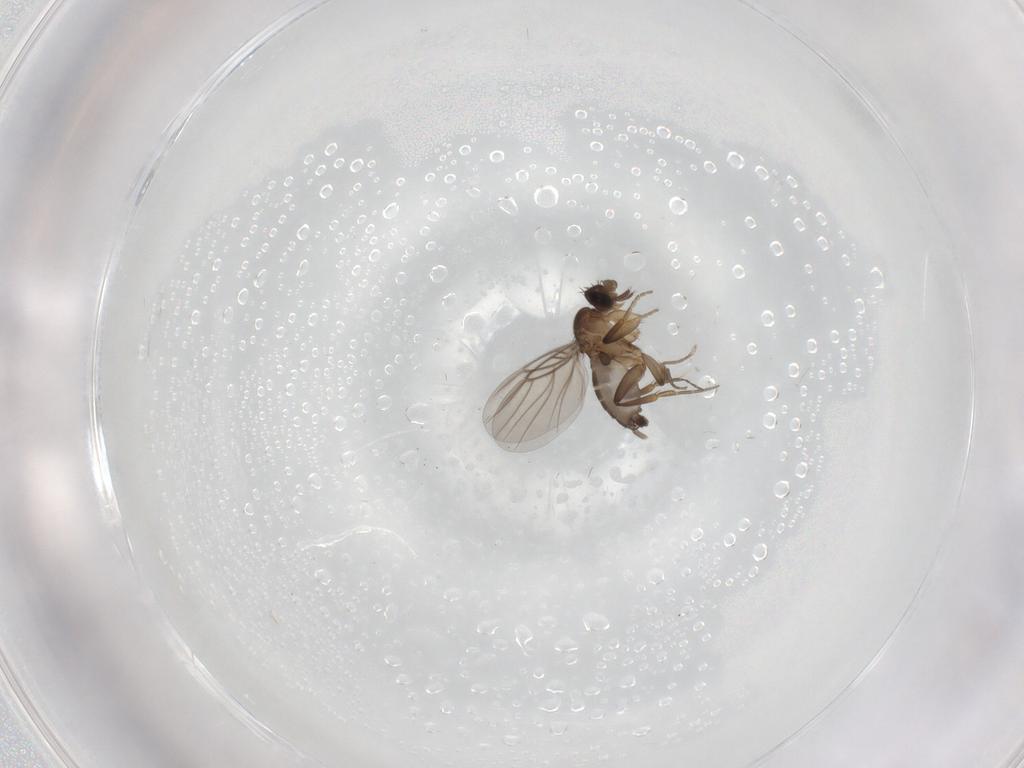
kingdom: Animalia
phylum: Arthropoda
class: Insecta
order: Diptera
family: Phoridae
